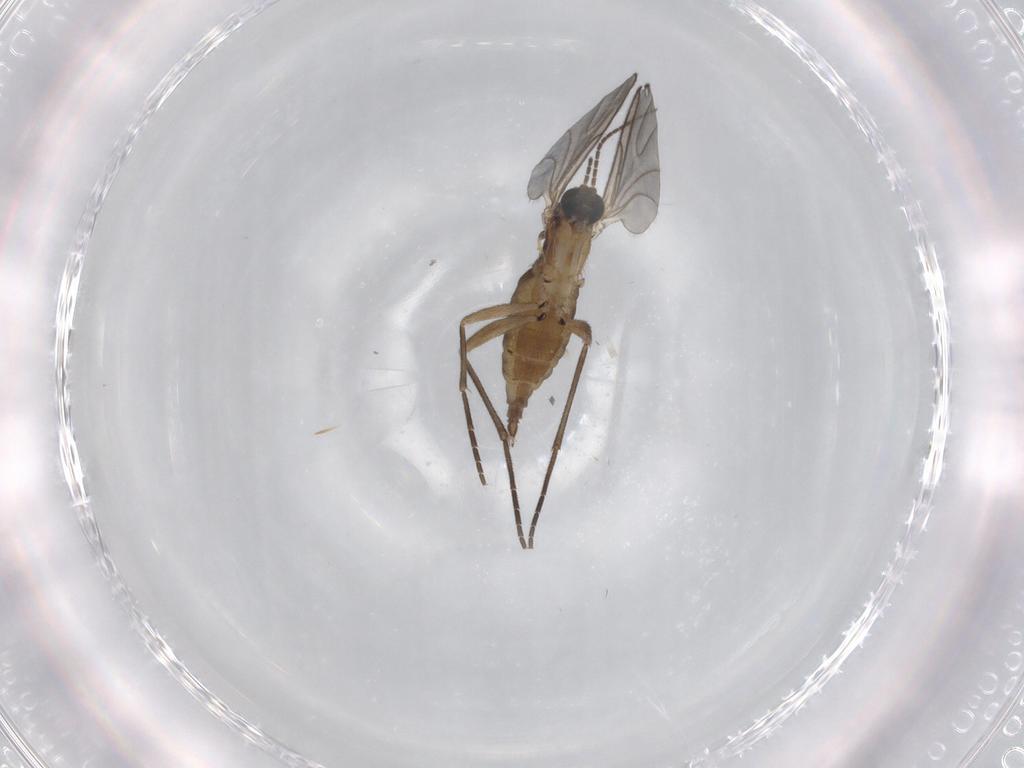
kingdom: Animalia
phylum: Arthropoda
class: Insecta
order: Diptera
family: Sciaridae
